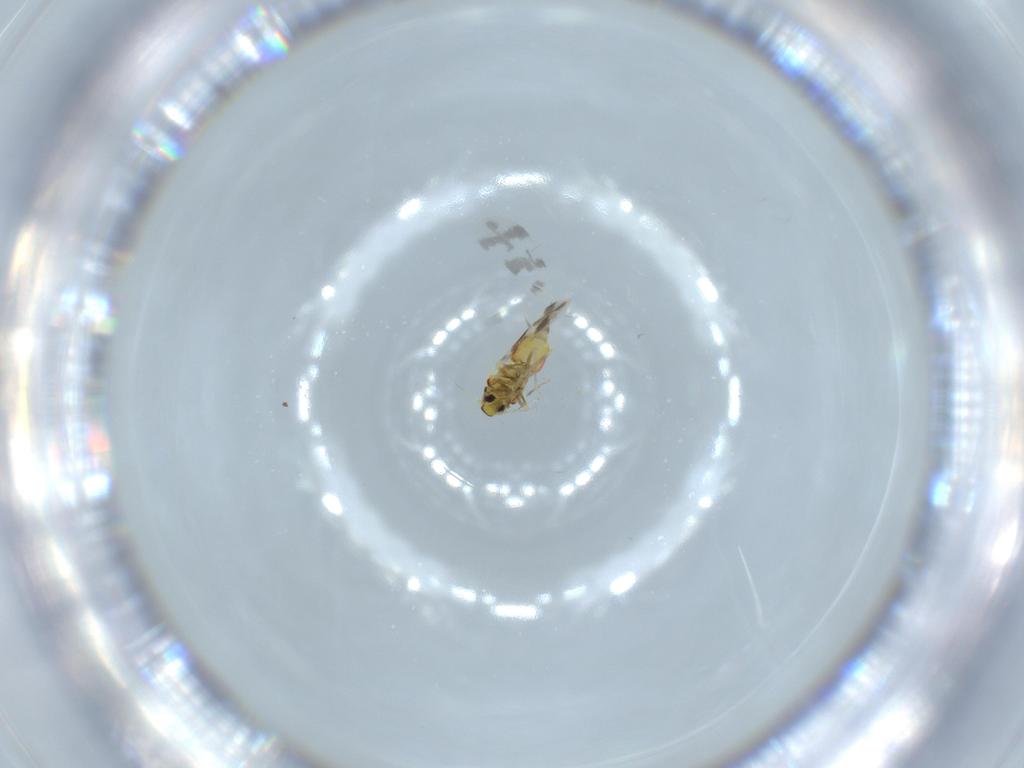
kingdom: Animalia
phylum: Arthropoda
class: Insecta
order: Hemiptera
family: Aleyrodidae
